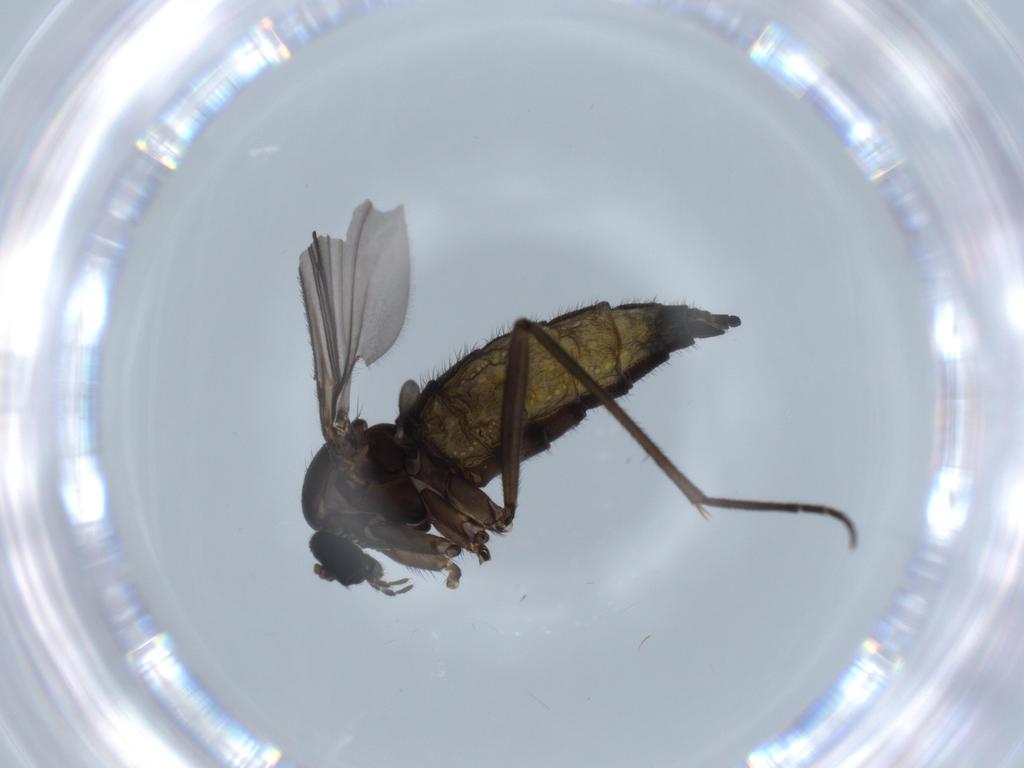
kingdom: Animalia
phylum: Arthropoda
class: Insecta
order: Diptera
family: Sciaridae
